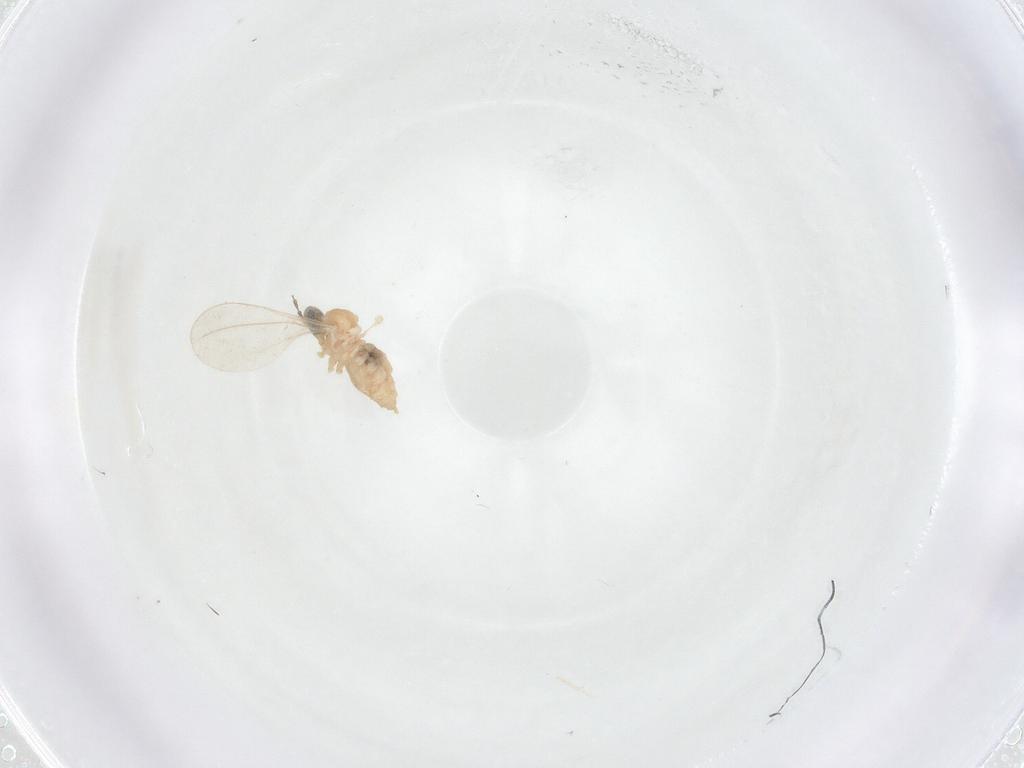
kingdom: Animalia
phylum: Arthropoda
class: Insecta
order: Diptera
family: Cecidomyiidae
